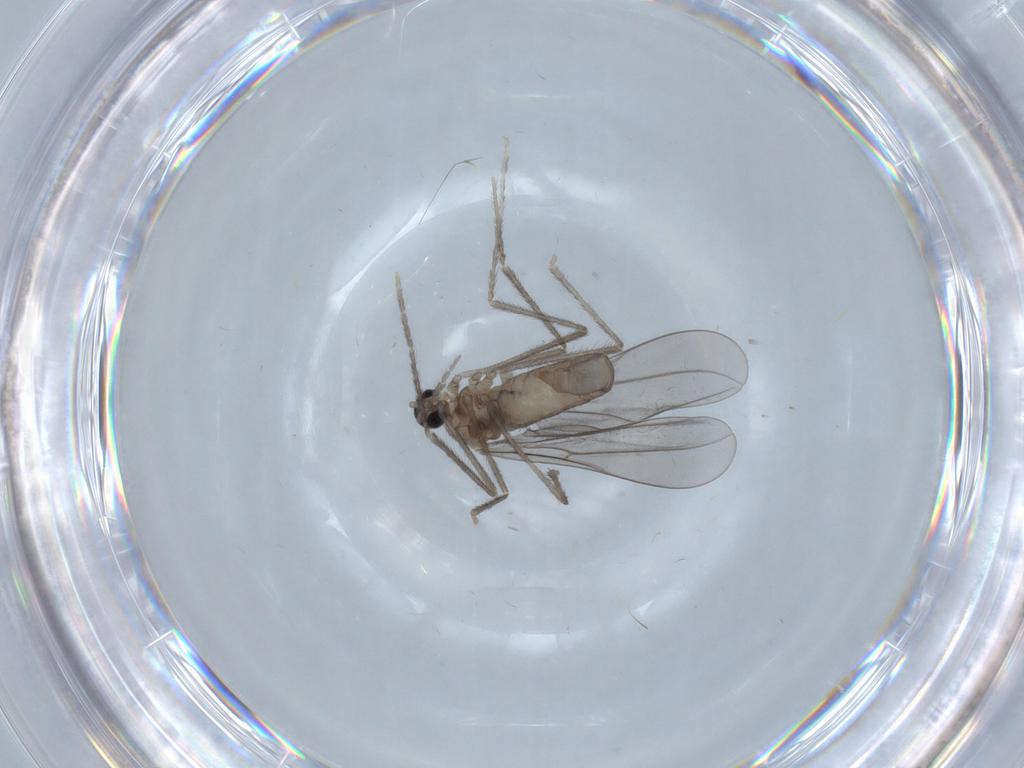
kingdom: Animalia
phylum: Arthropoda
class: Insecta
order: Diptera
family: Cecidomyiidae
